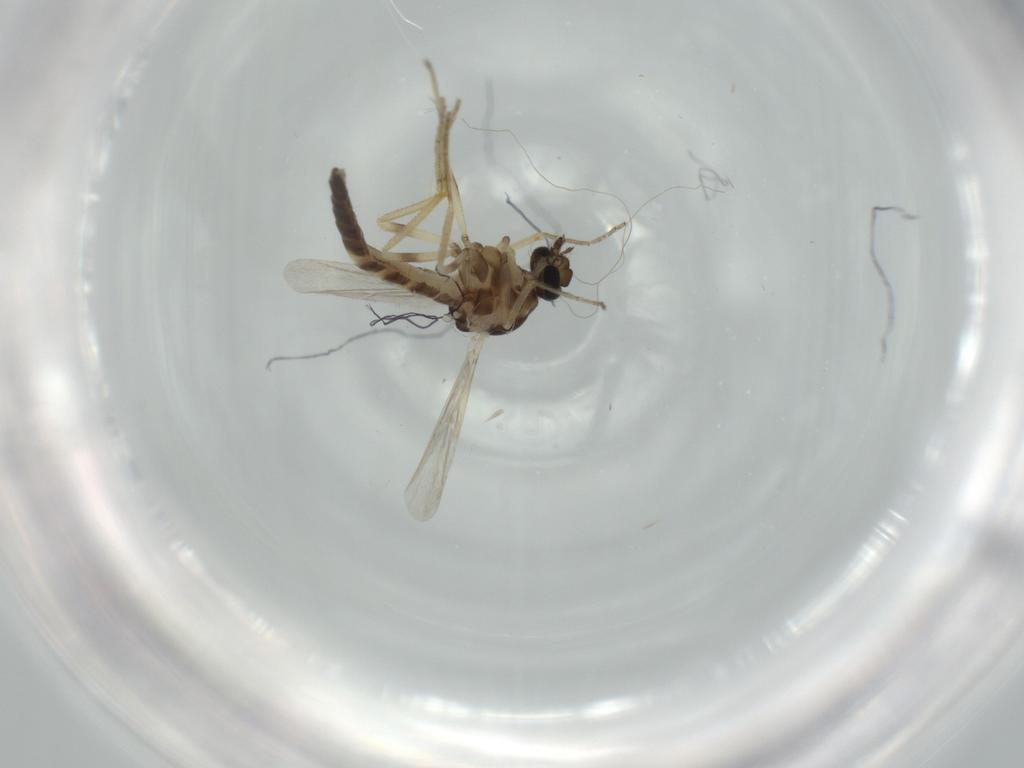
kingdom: Animalia
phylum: Arthropoda
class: Insecta
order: Diptera
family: Ceratopogonidae
